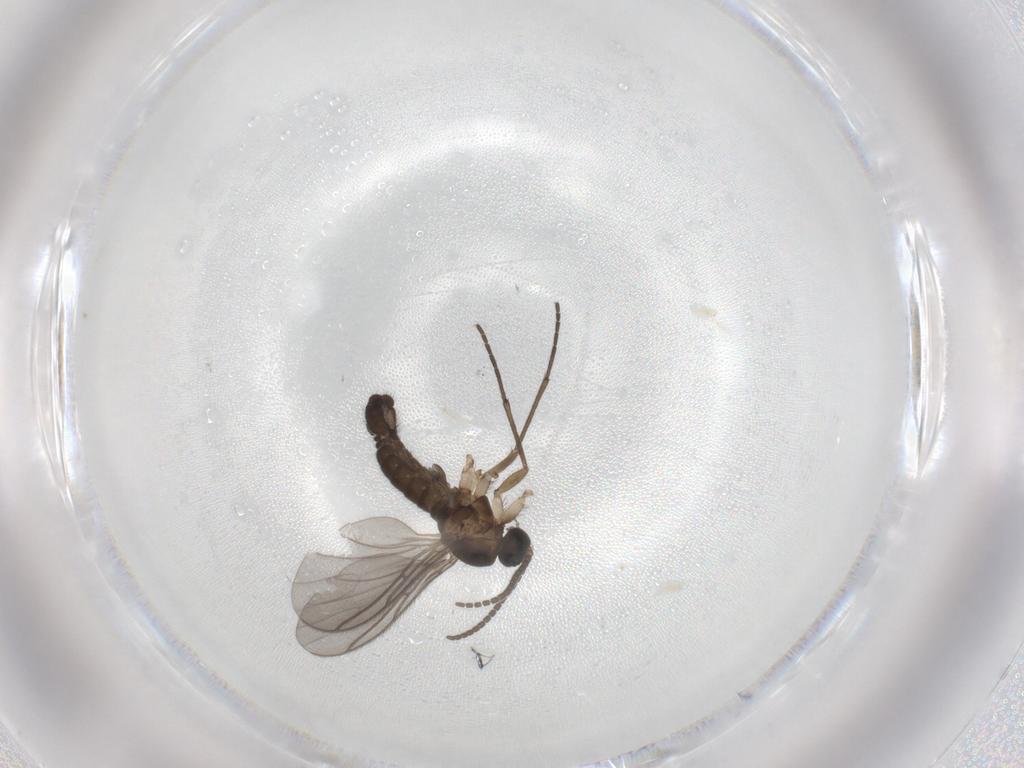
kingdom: Animalia
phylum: Arthropoda
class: Insecta
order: Diptera
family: Sciaridae
